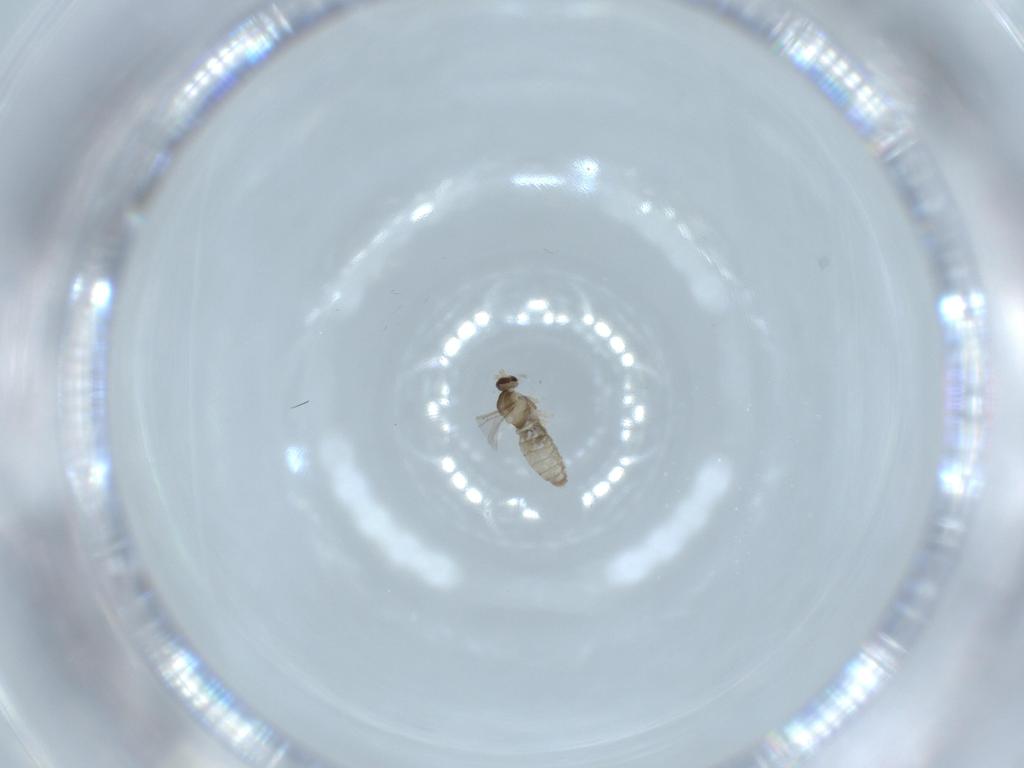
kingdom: Animalia
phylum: Arthropoda
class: Insecta
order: Diptera
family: Cecidomyiidae
